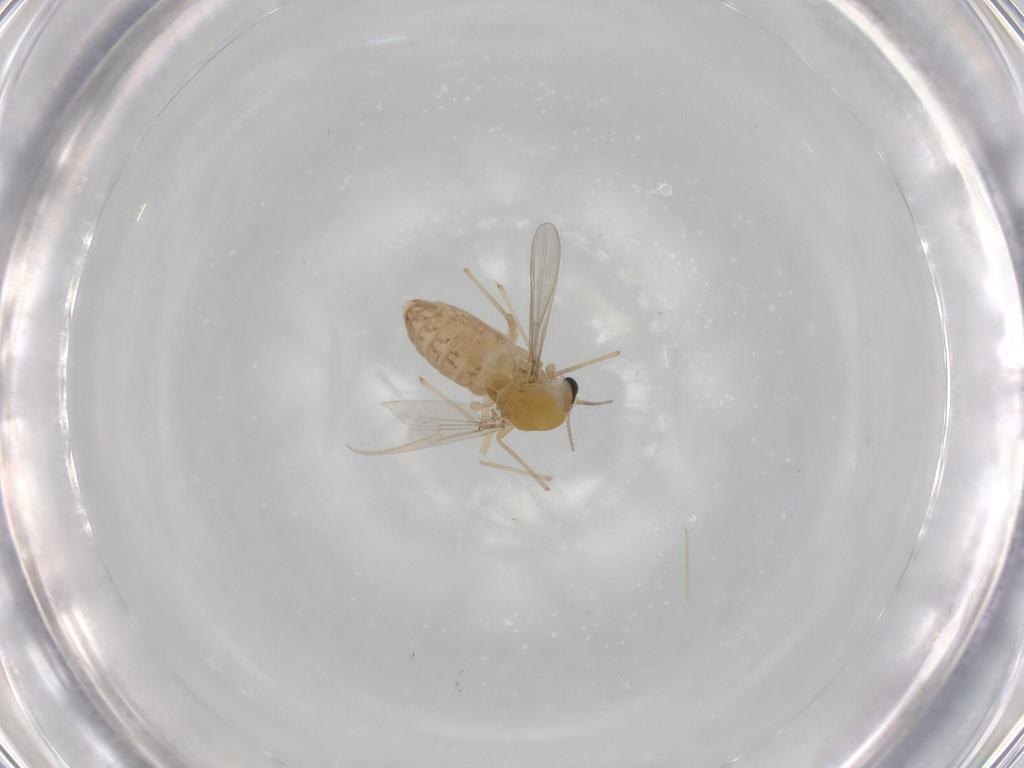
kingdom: Animalia
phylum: Arthropoda
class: Insecta
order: Diptera
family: Chironomidae
